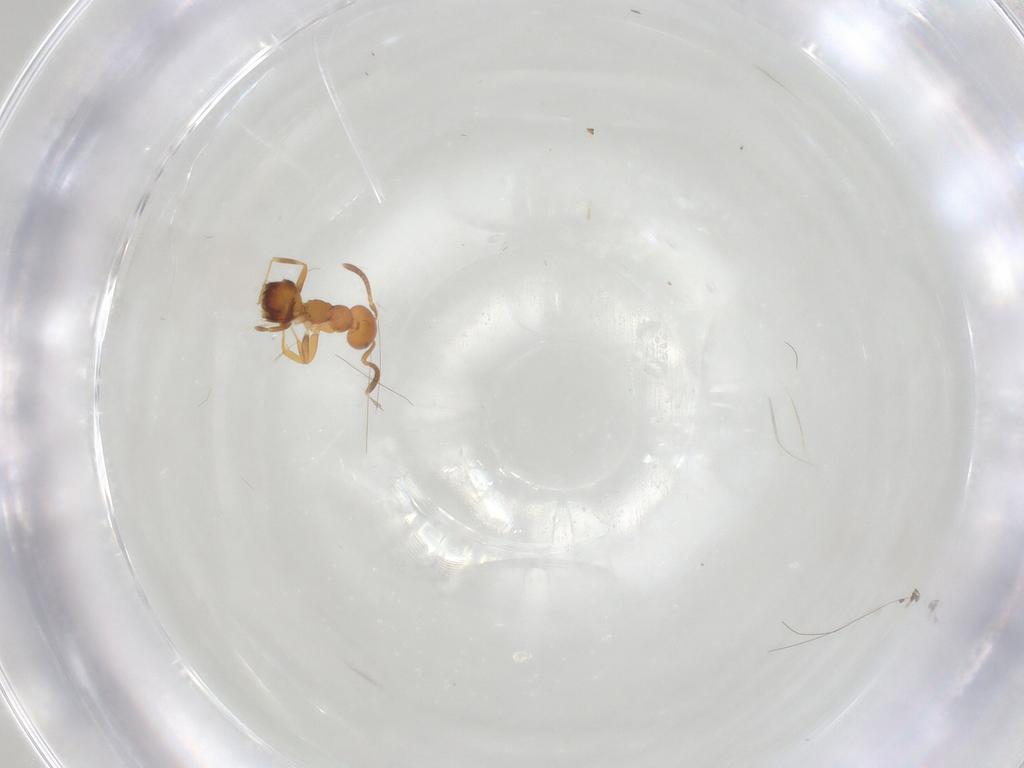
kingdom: Animalia
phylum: Arthropoda
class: Insecta
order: Hymenoptera
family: Formicidae
